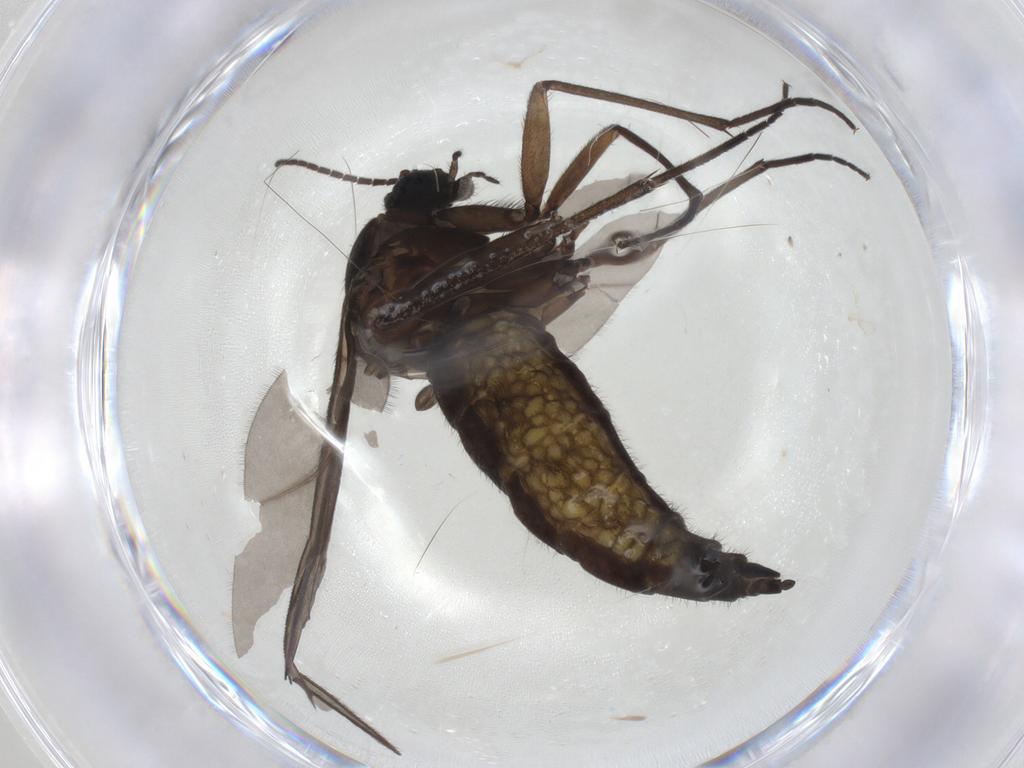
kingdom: Animalia
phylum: Arthropoda
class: Insecta
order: Diptera
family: Sciaridae
